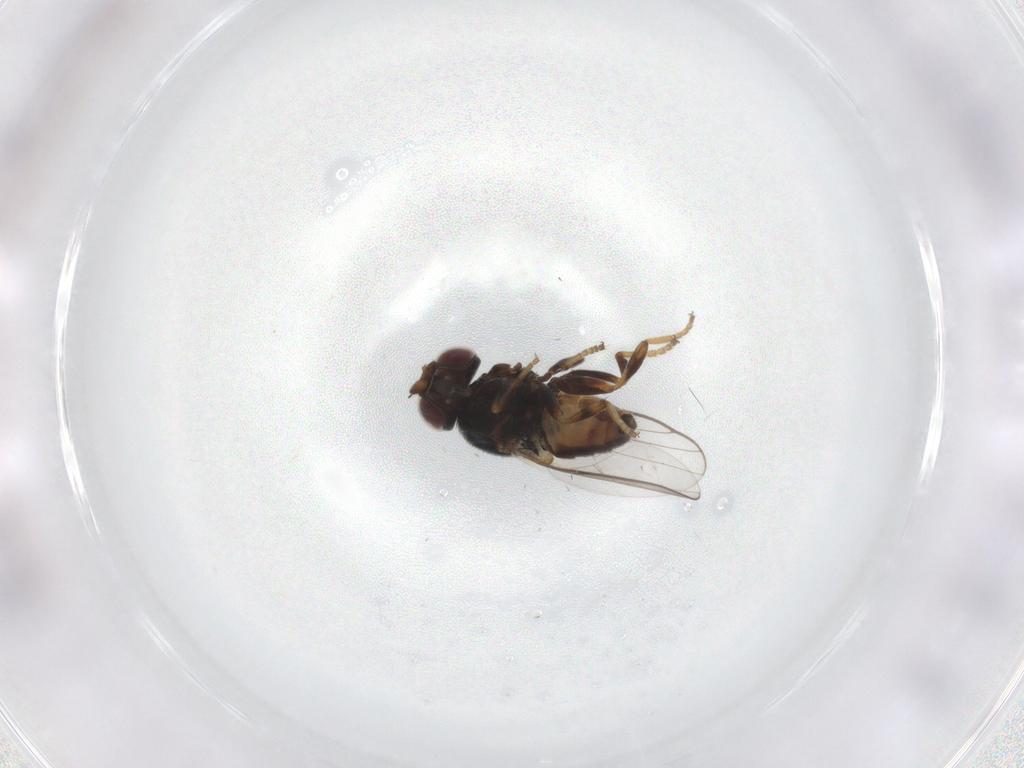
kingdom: Animalia
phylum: Arthropoda
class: Insecta
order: Diptera
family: Chloropidae
